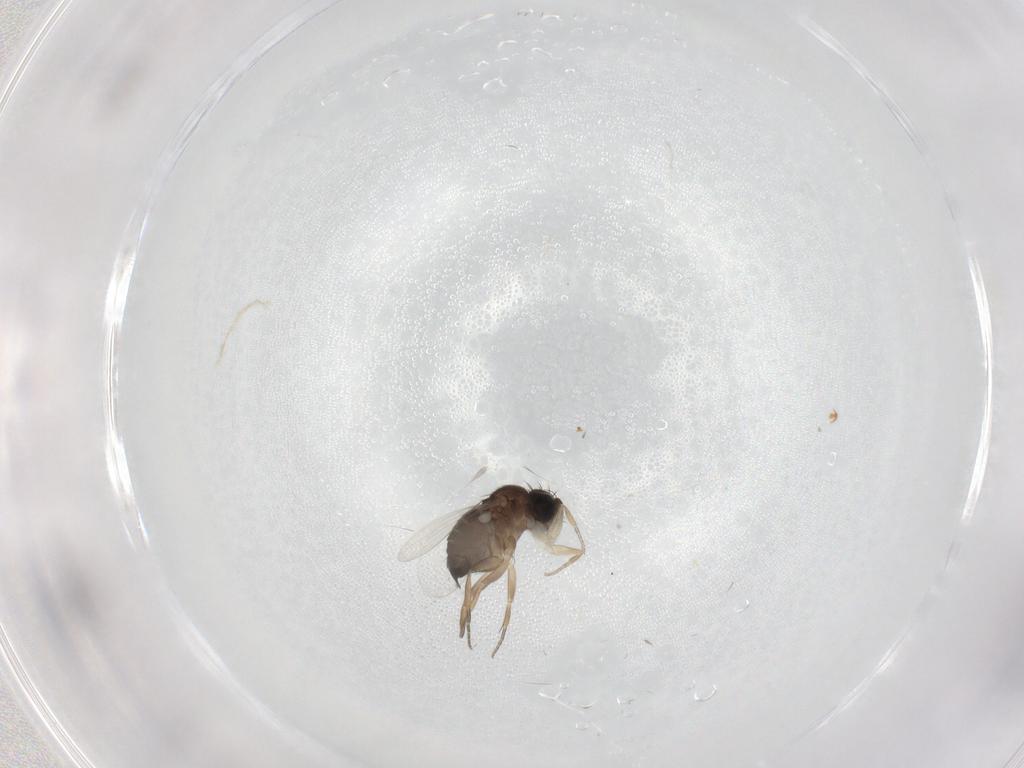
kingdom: Animalia
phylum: Arthropoda
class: Insecta
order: Diptera
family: Phoridae
